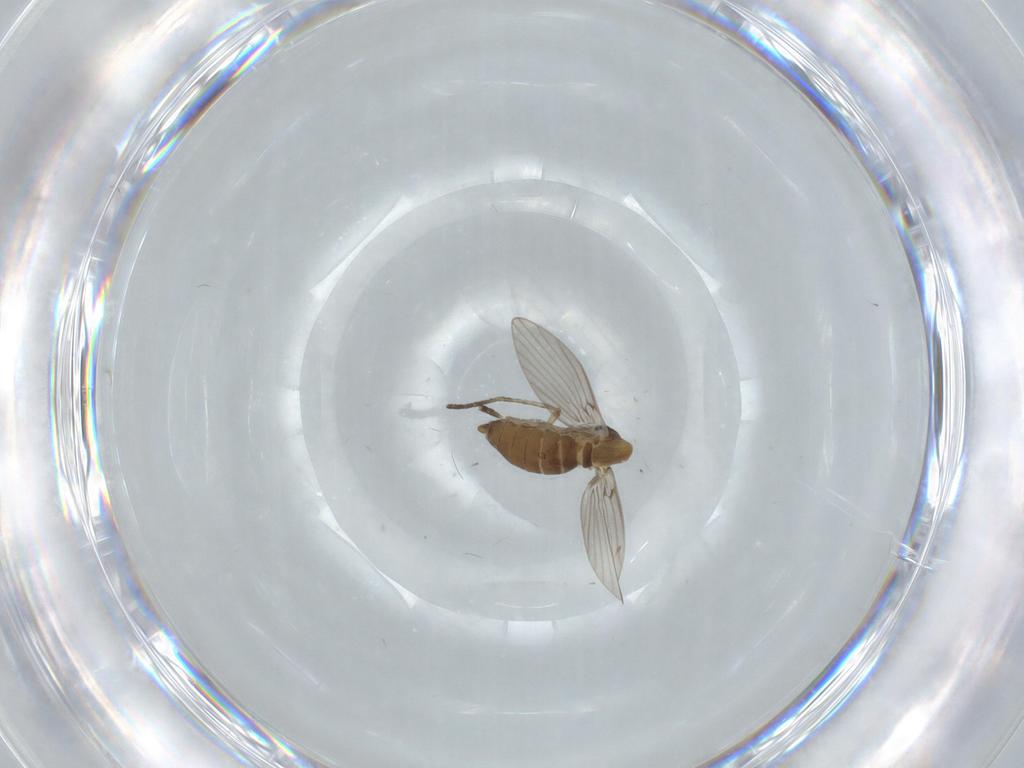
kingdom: Animalia
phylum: Arthropoda
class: Insecta
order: Diptera
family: Psychodidae
